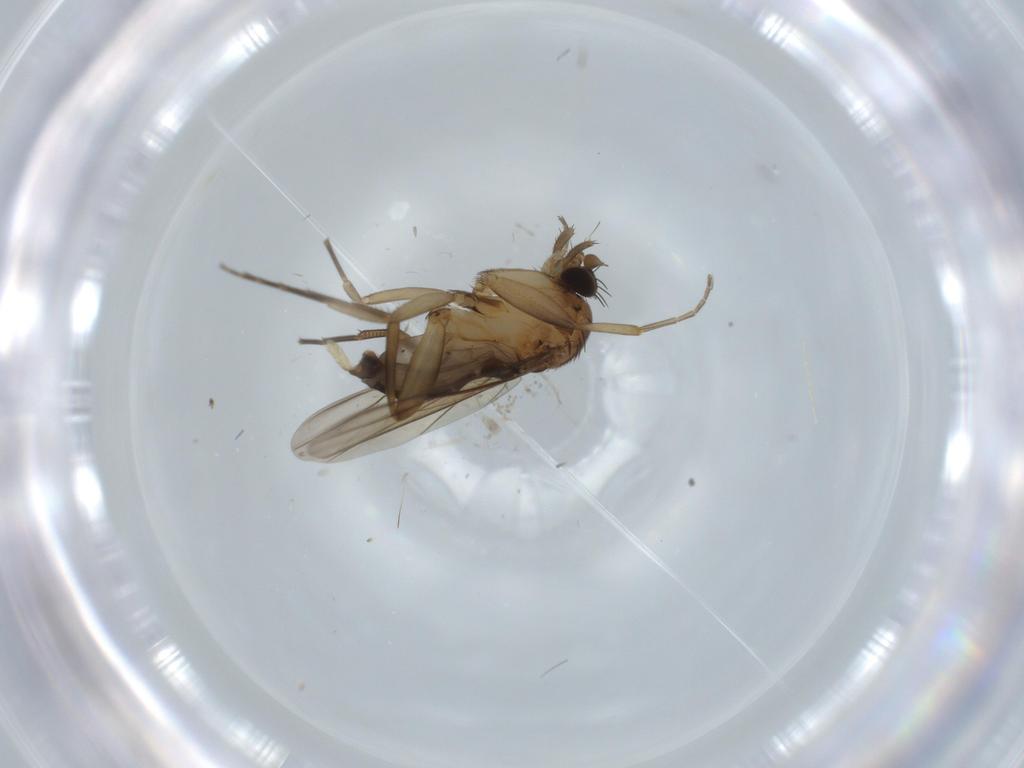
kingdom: Animalia
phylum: Arthropoda
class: Insecta
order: Diptera
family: Phoridae
